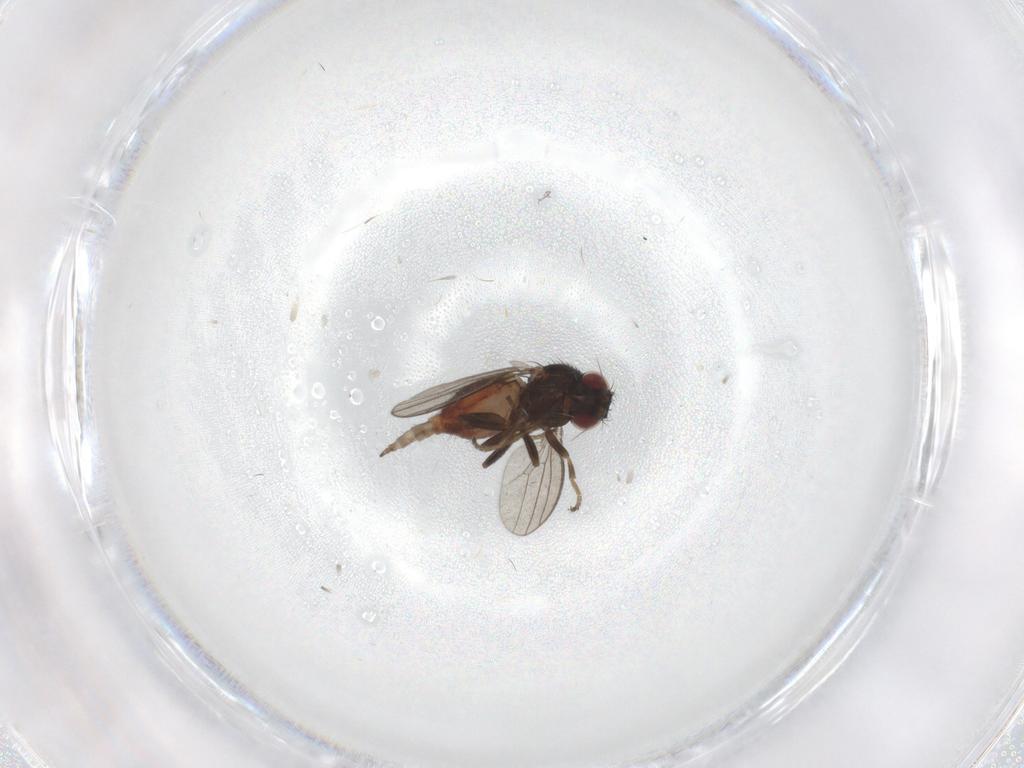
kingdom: Animalia
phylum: Arthropoda
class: Insecta
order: Diptera
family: Milichiidae
